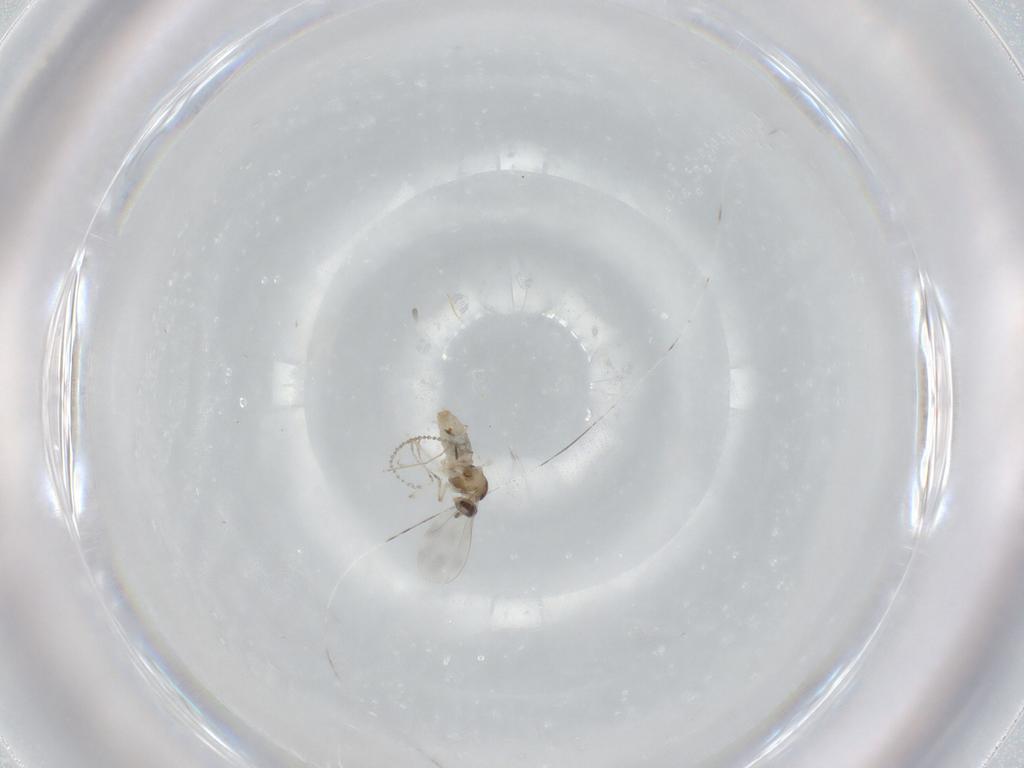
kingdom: Animalia
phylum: Arthropoda
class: Insecta
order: Diptera
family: Cecidomyiidae
